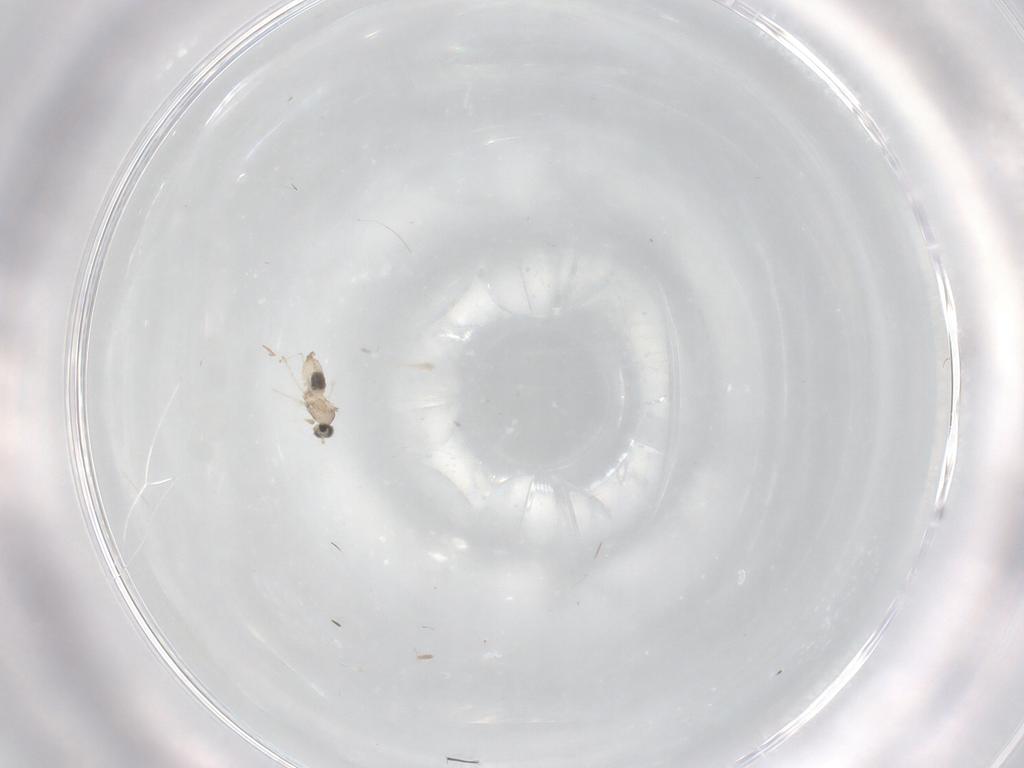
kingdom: Animalia
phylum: Arthropoda
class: Insecta
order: Diptera
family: Cecidomyiidae
